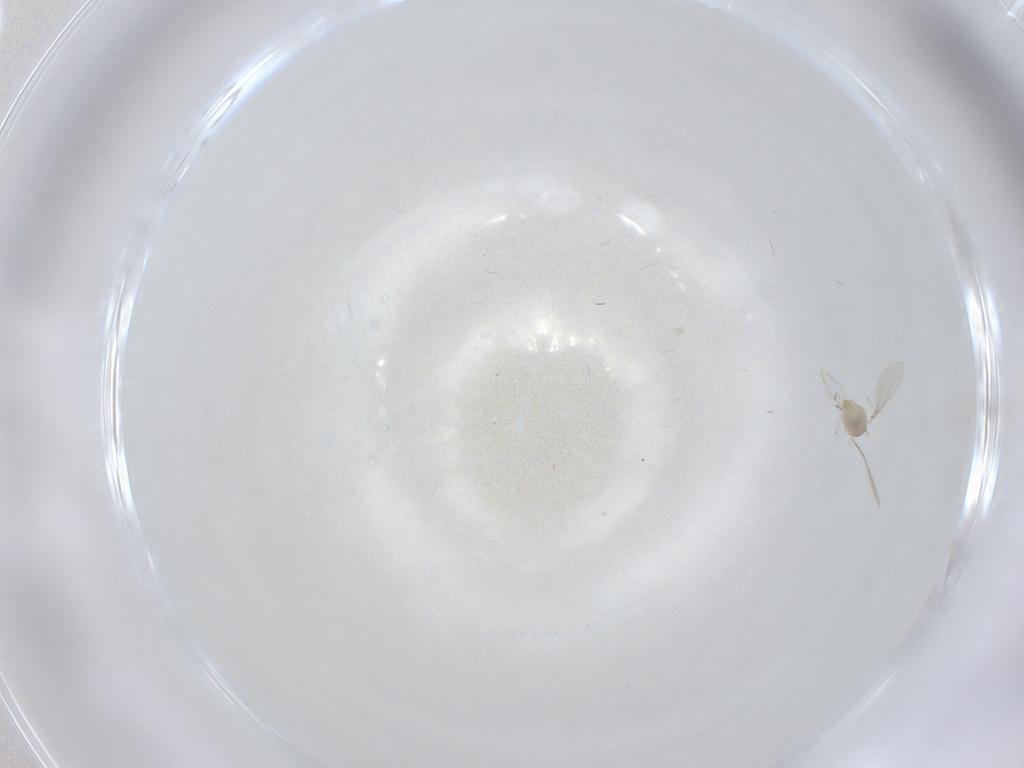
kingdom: Animalia
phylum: Arthropoda
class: Insecta
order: Diptera
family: Cecidomyiidae
